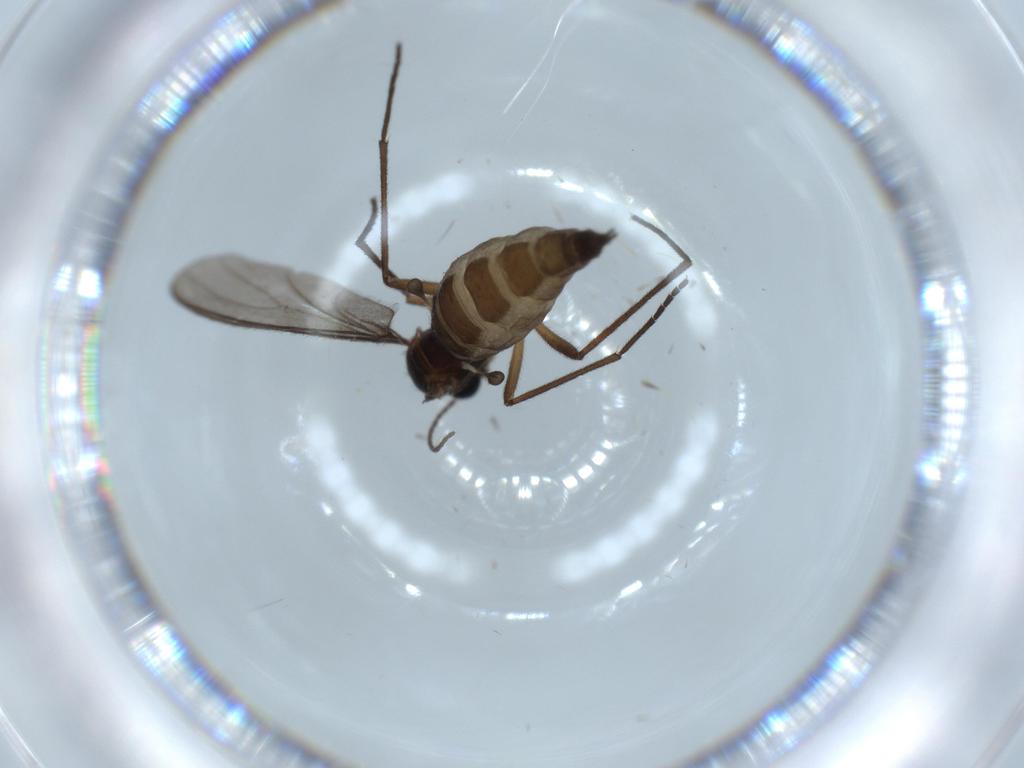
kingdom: Animalia
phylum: Arthropoda
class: Insecta
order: Diptera
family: Sciaridae
